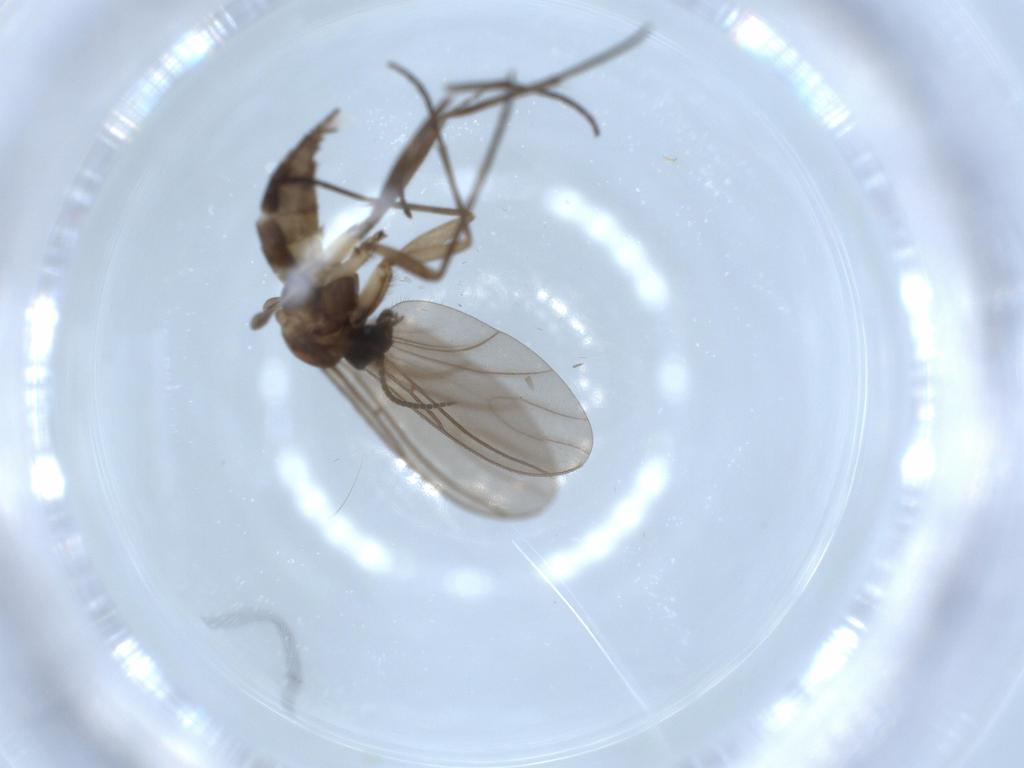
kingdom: Animalia
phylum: Arthropoda
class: Insecta
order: Diptera
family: Sciaridae
